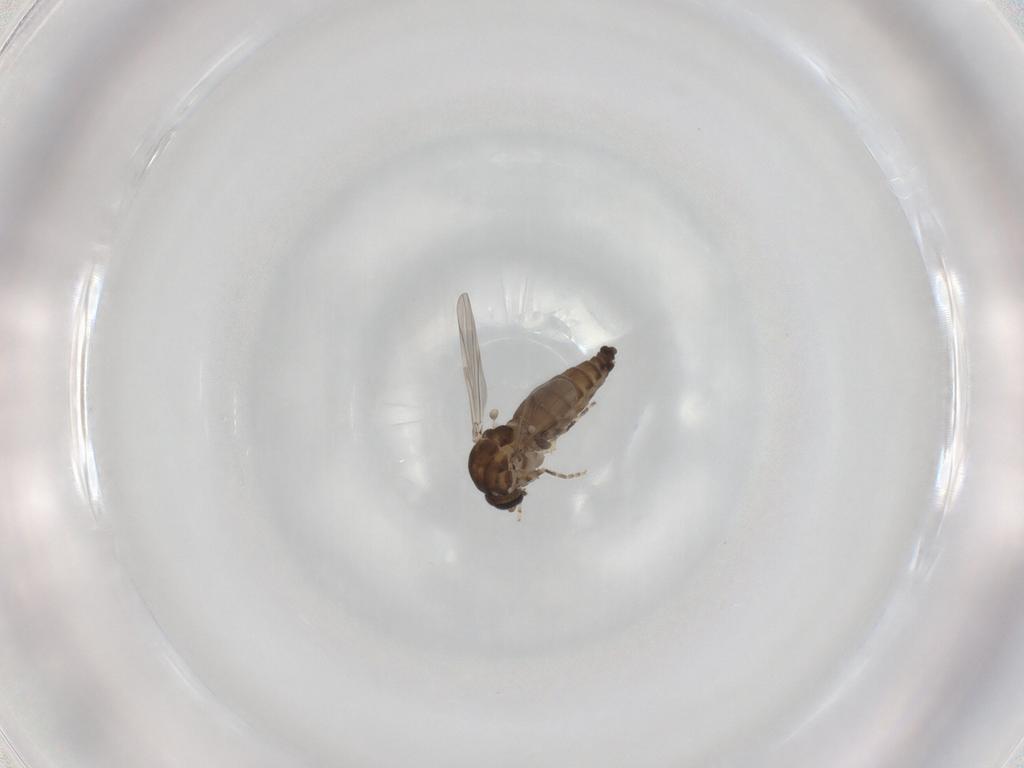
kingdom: Animalia
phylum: Arthropoda
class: Insecta
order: Diptera
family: Ceratopogonidae
